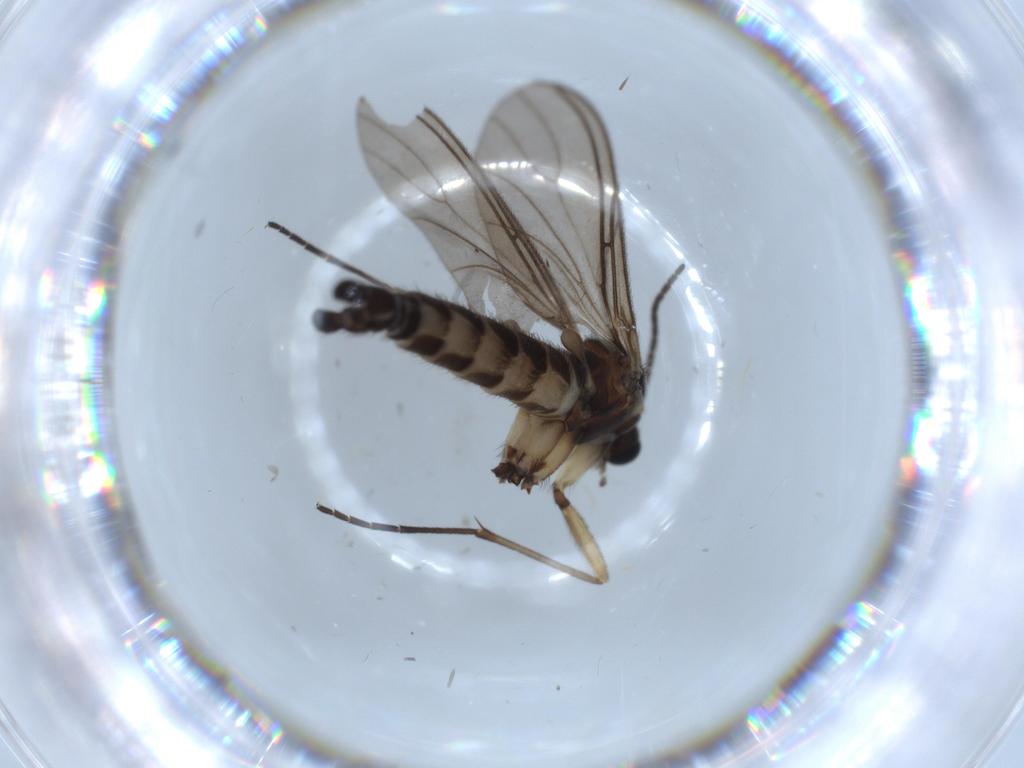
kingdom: Animalia
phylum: Arthropoda
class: Insecta
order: Diptera
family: Sciaridae
